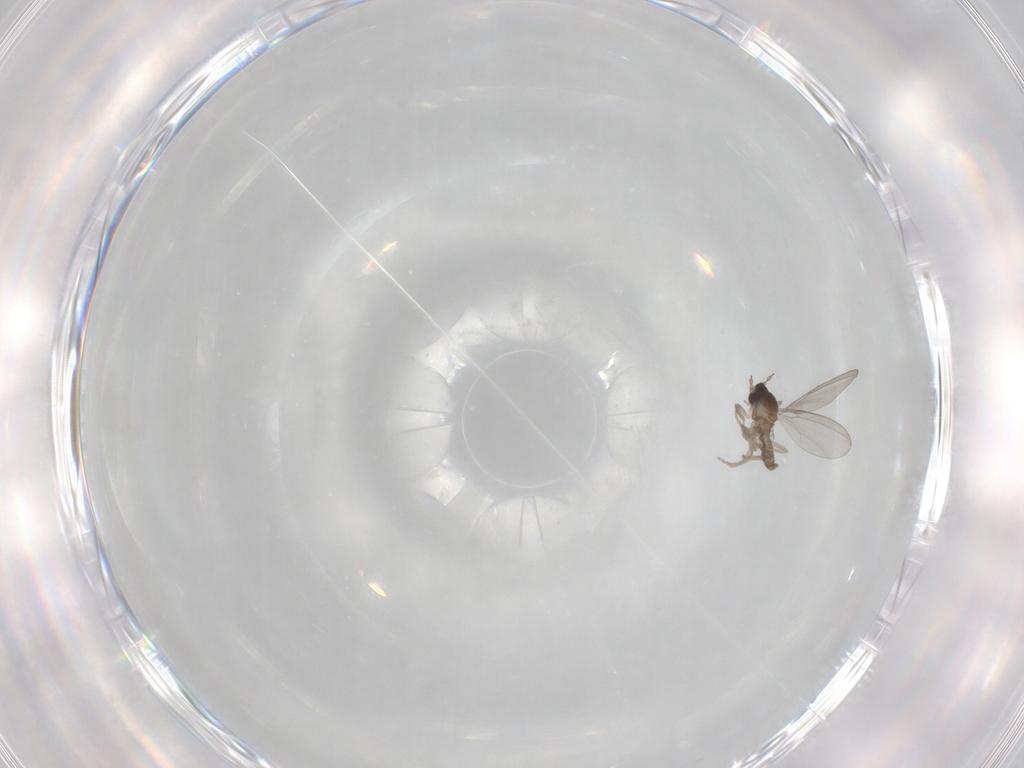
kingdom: Animalia
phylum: Arthropoda
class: Insecta
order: Diptera
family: Cecidomyiidae
